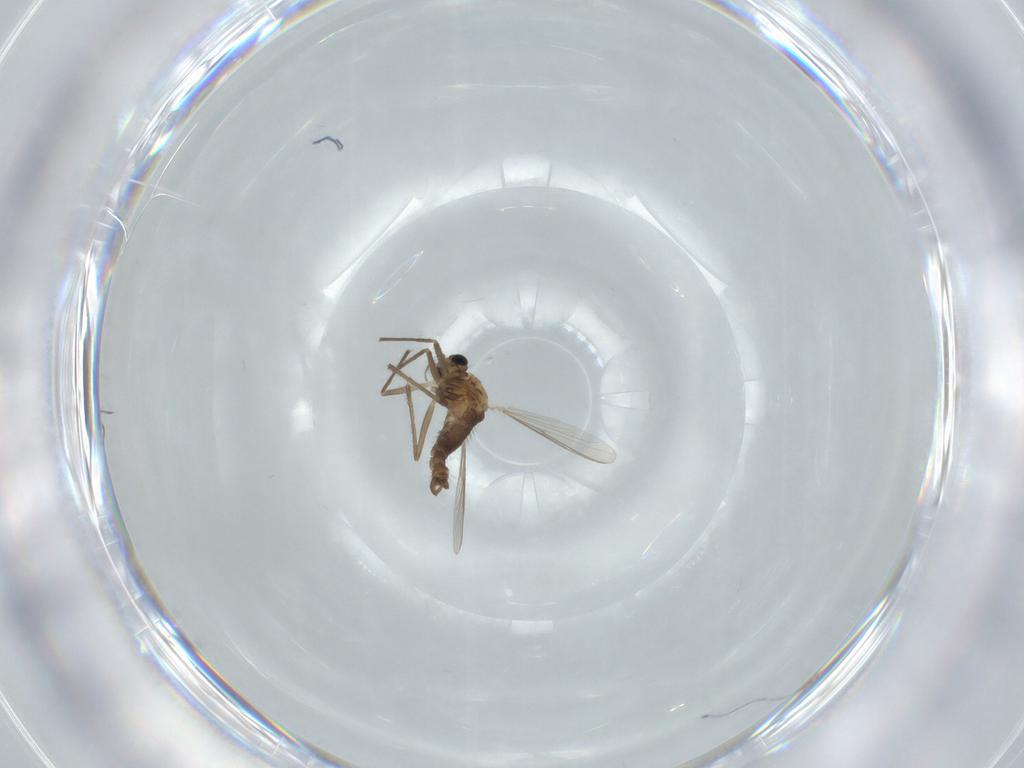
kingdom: Animalia
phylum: Arthropoda
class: Insecta
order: Diptera
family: Chironomidae
